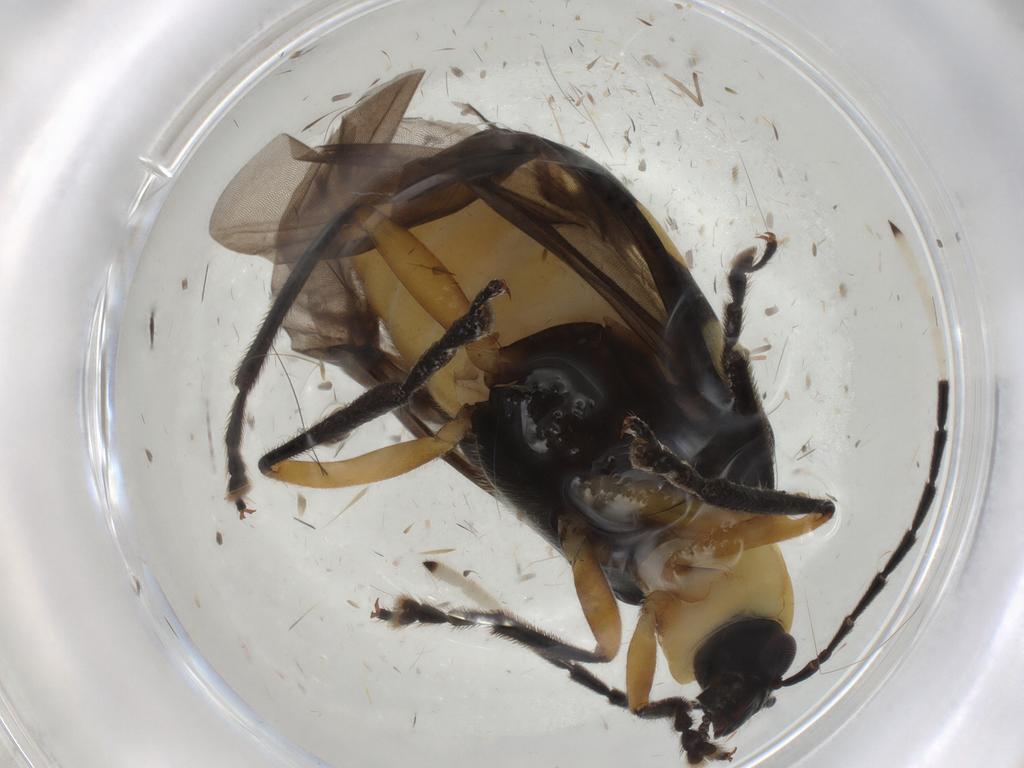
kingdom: Animalia
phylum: Arthropoda
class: Insecta
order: Coleoptera
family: Chrysomelidae
